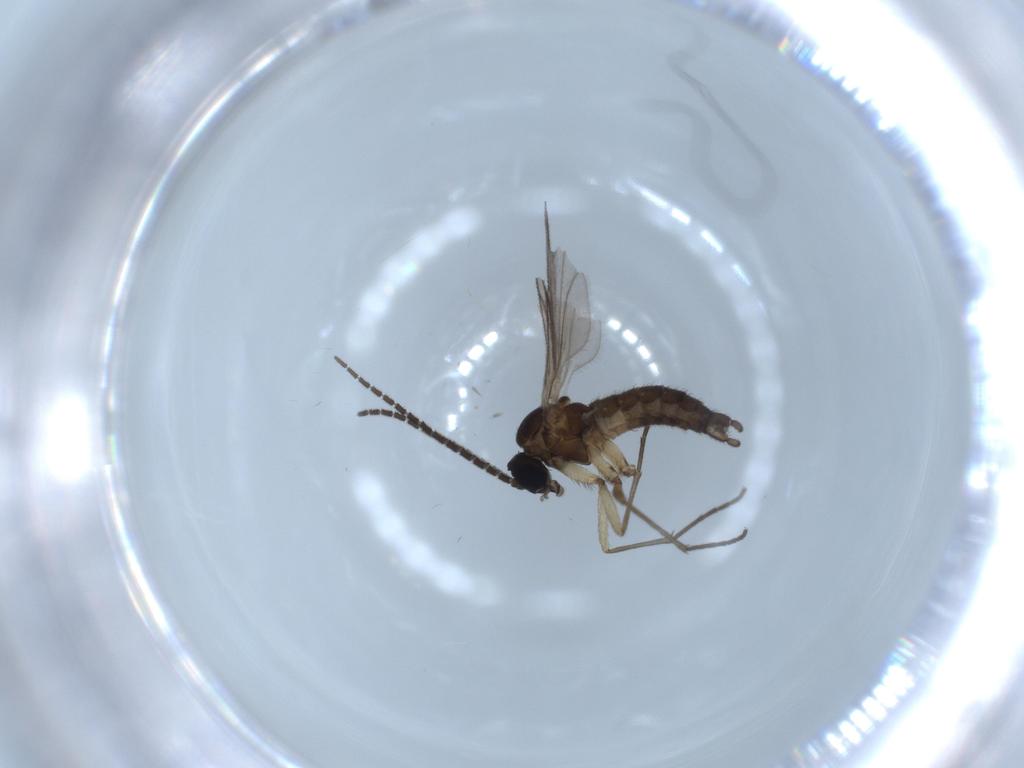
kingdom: Animalia
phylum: Arthropoda
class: Insecta
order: Diptera
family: Sciaridae
